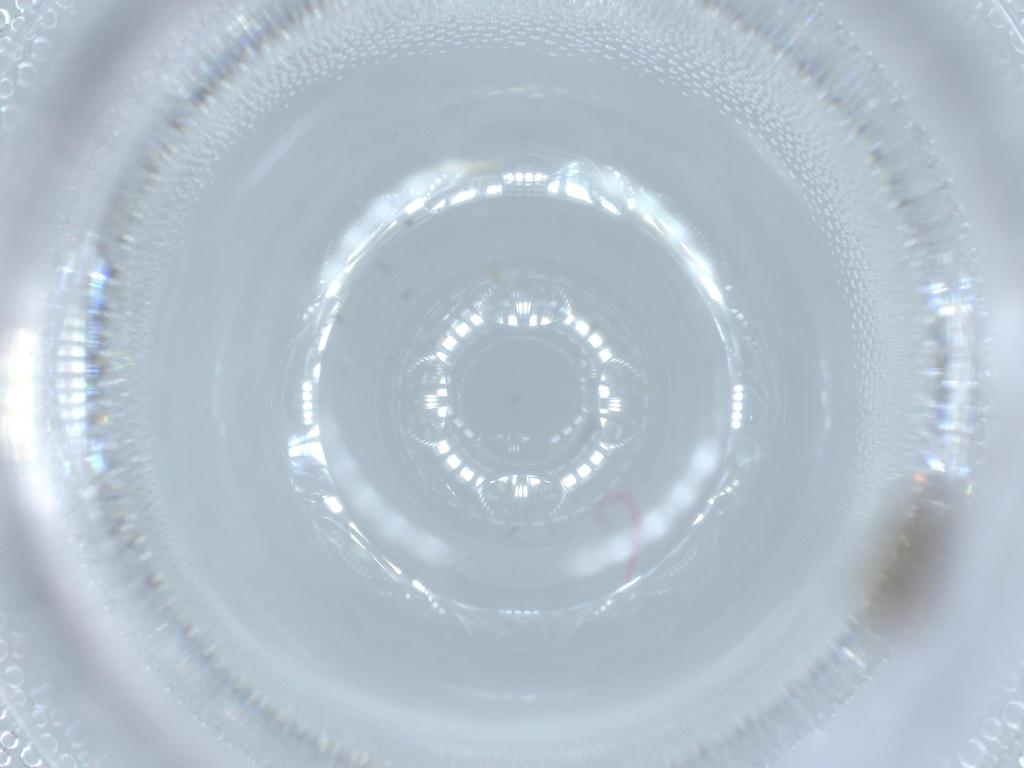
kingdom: Animalia
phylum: Arthropoda
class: Insecta
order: Diptera
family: Sciaridae
